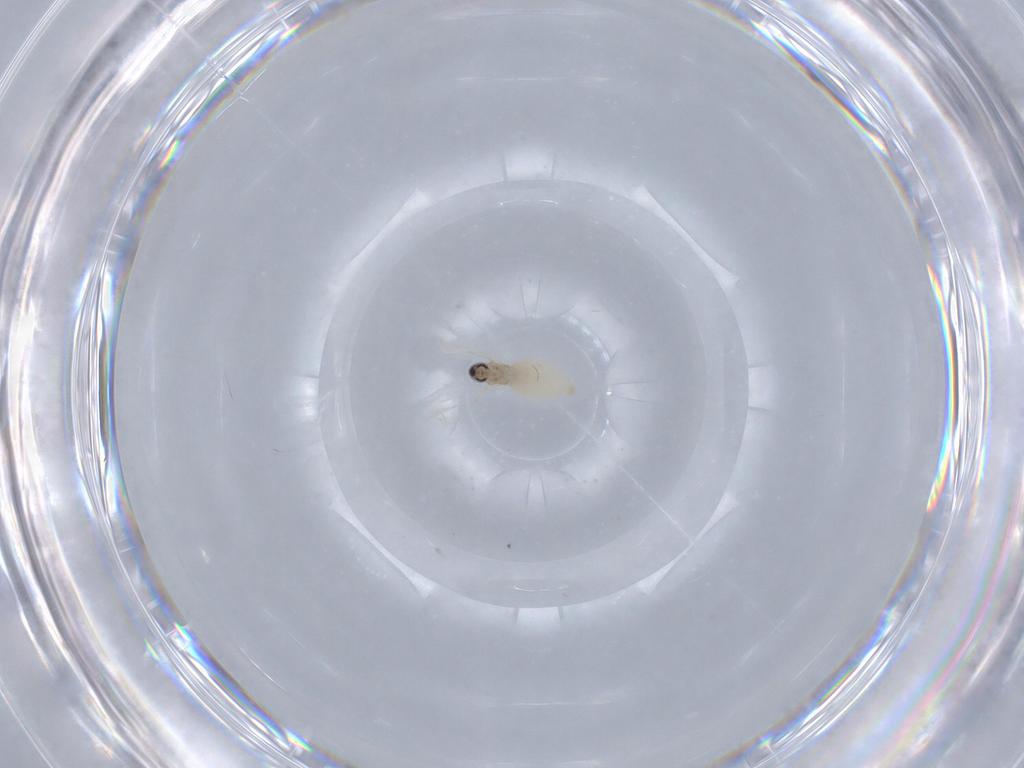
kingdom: Animalia
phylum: Arthropoda
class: Insecta
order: Diptera
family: Cecidomyiidae
